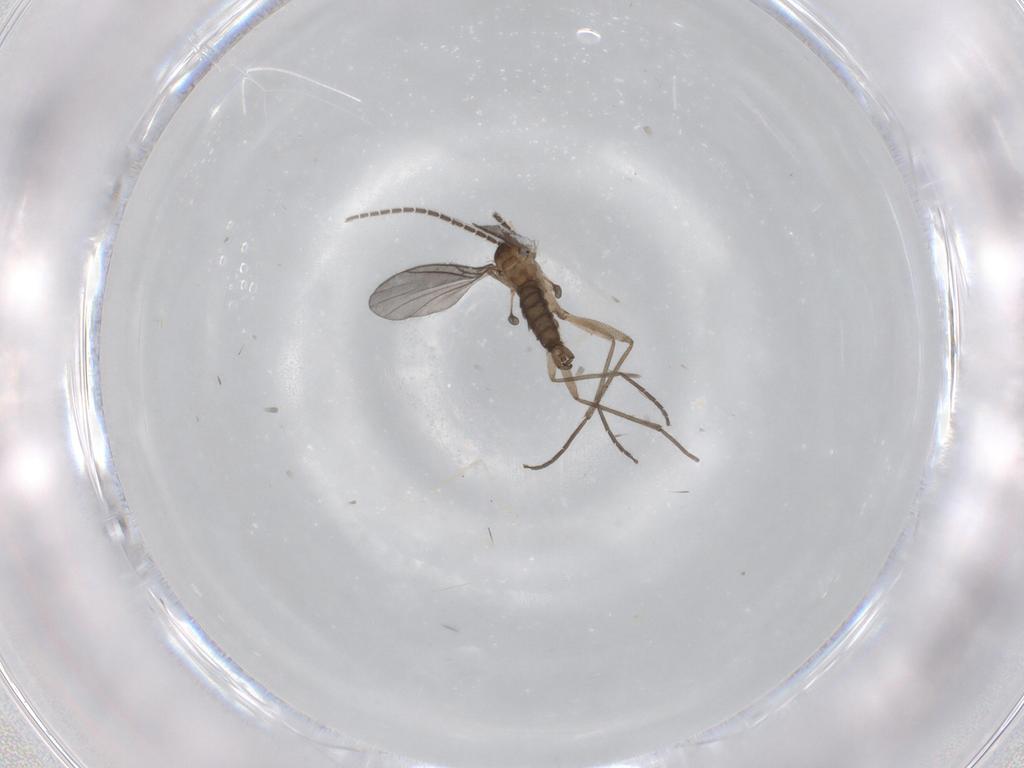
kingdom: Animalia
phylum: Arthropoda
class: Insecta
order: Diptera
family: Sciaridae
